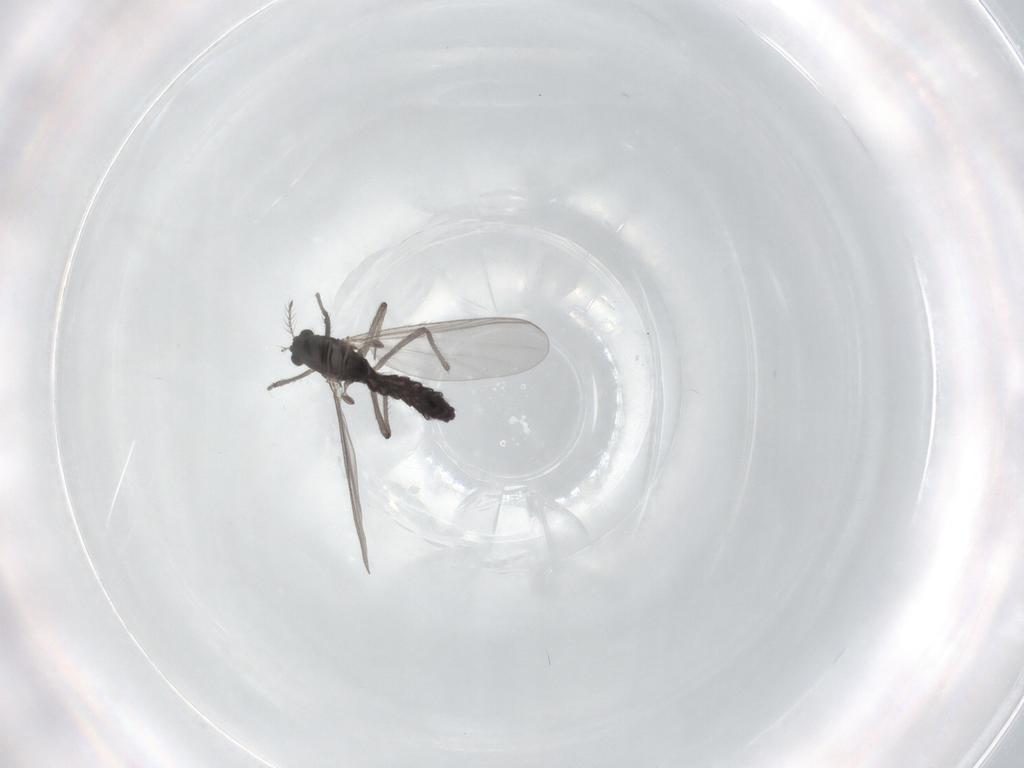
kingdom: Animalia
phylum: Arthropoda
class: Insecta
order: Diptera
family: Chironomidae
